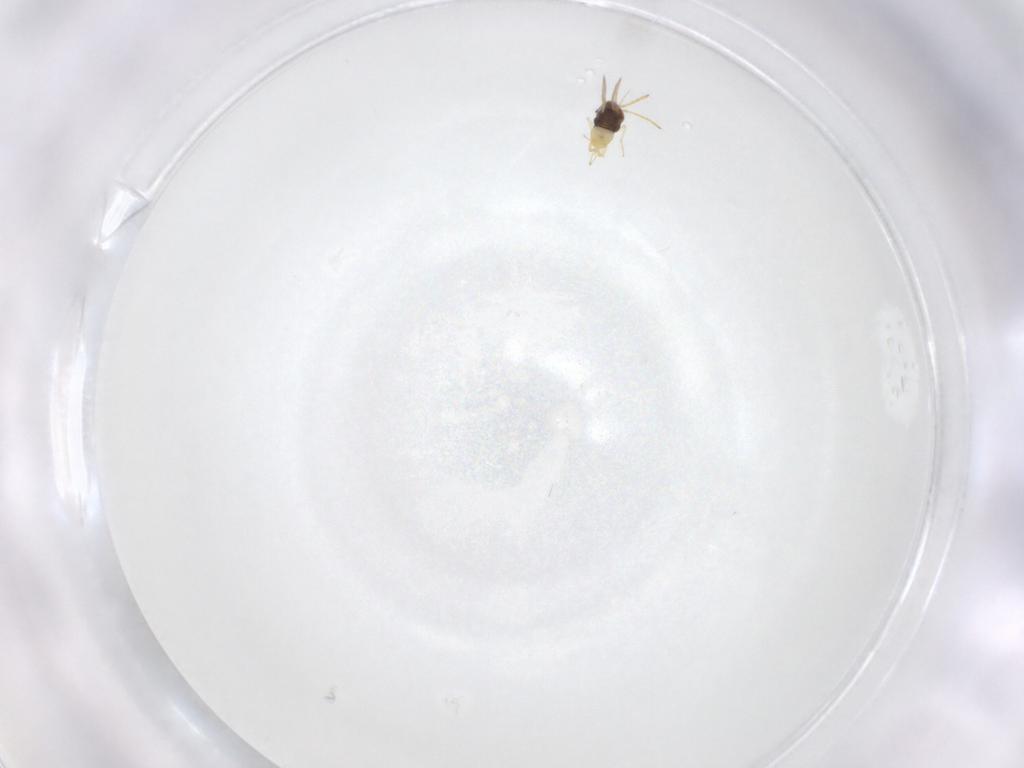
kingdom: Animalia
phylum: Arthropoda
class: Insecta
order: Hymenoptera
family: Aphelinidae
